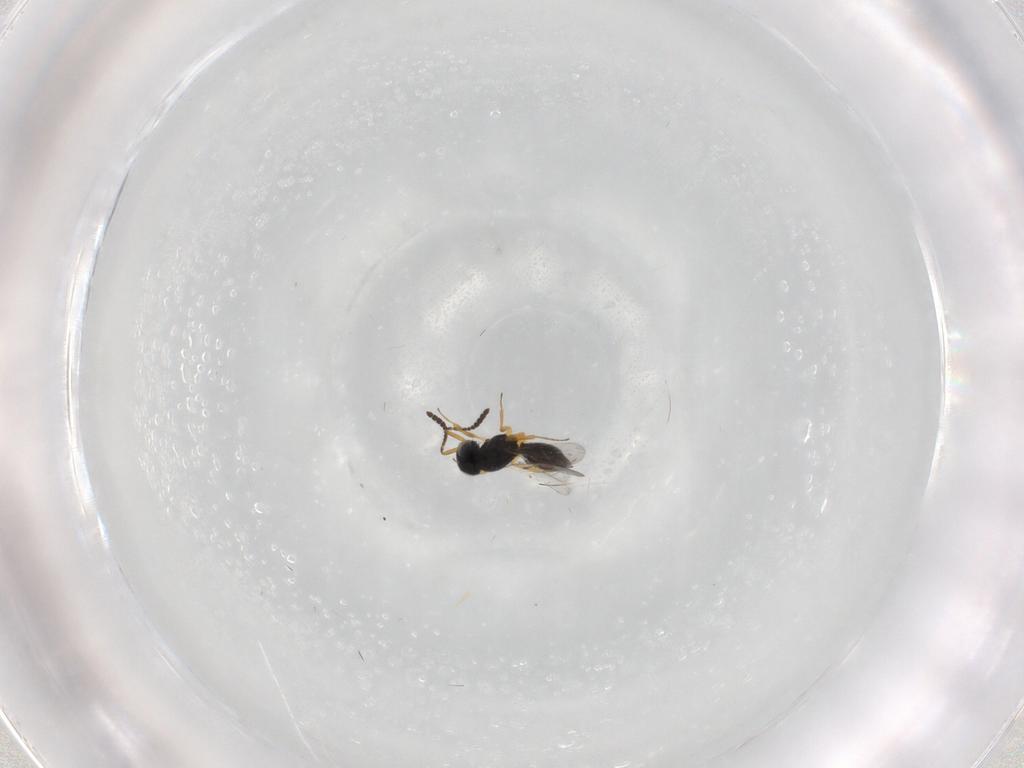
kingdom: Animalia
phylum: Arthropoda
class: Insecta
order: Hymenoptera
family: Scelionidae
